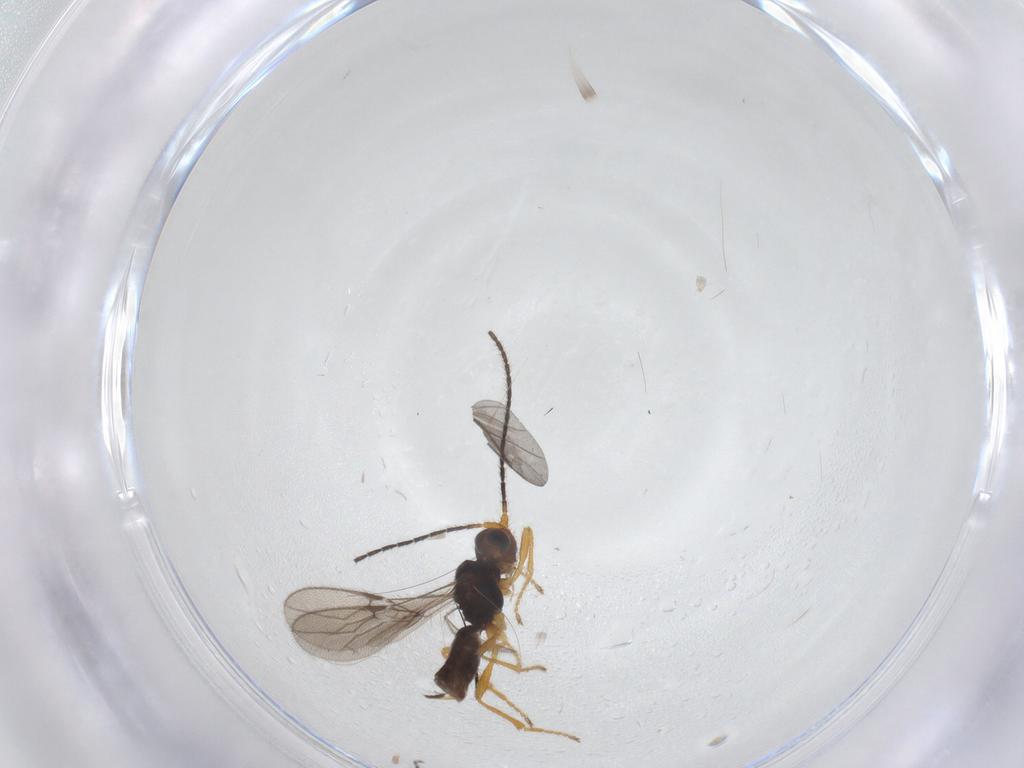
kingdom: Animalia
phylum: Arthropoda
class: Insecta
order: Hymenoptera
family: Braconidae
